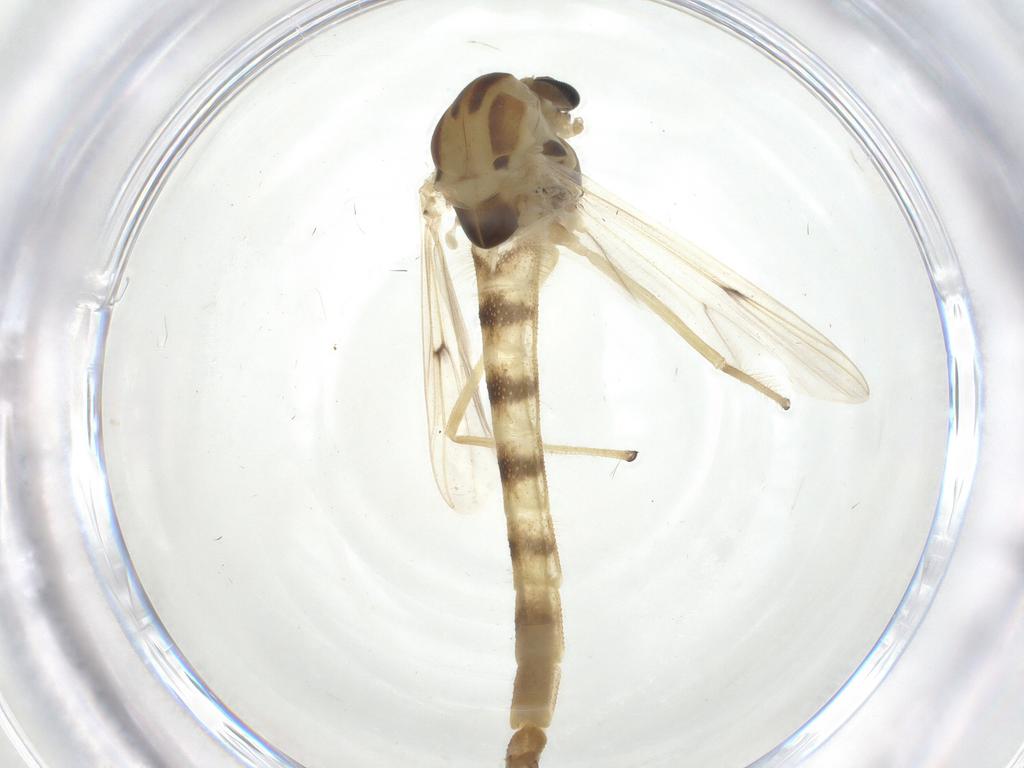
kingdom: Animalia
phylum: Arthropoda
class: Insecta
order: Diptera
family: Chironomidae
